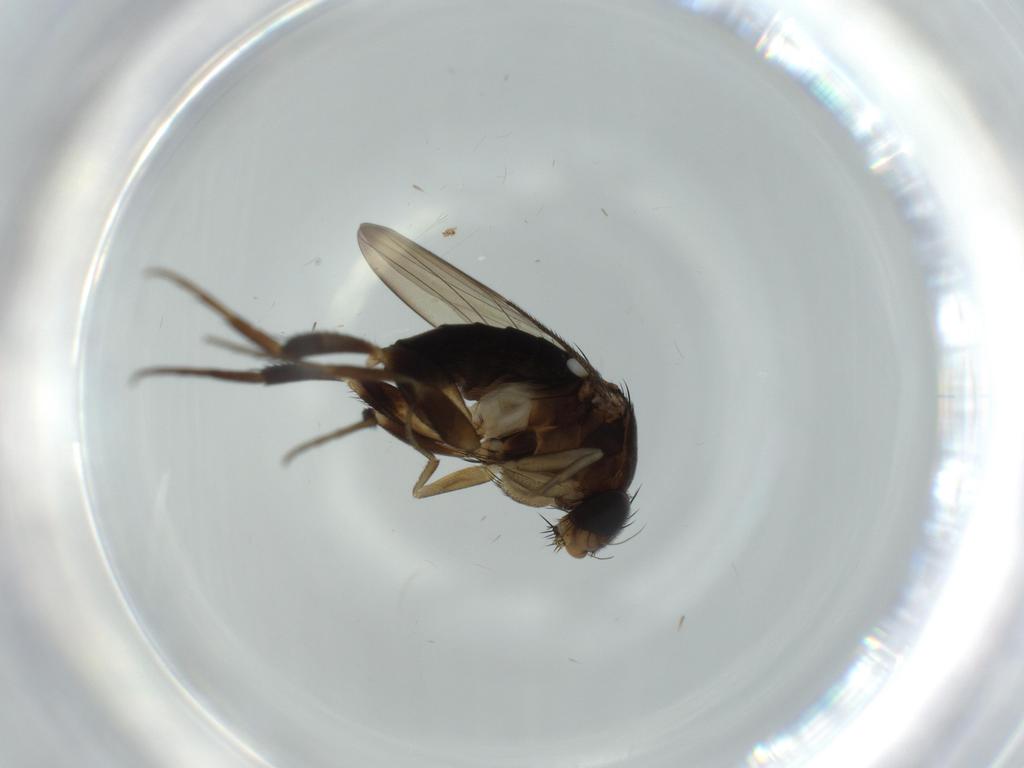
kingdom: Animalia
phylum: Arthropoda
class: Insecta
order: Diptera
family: Phoridae
